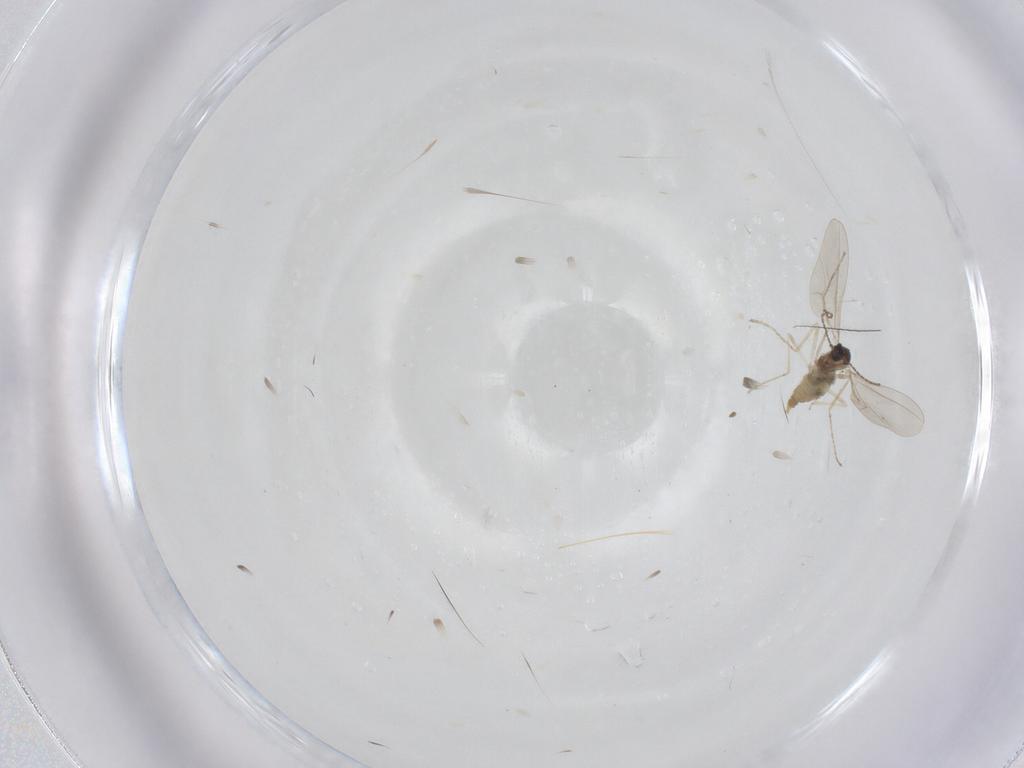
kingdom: Animalia
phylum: Arthropoda
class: Insecta
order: Diptera
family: Cecidomyiidae
